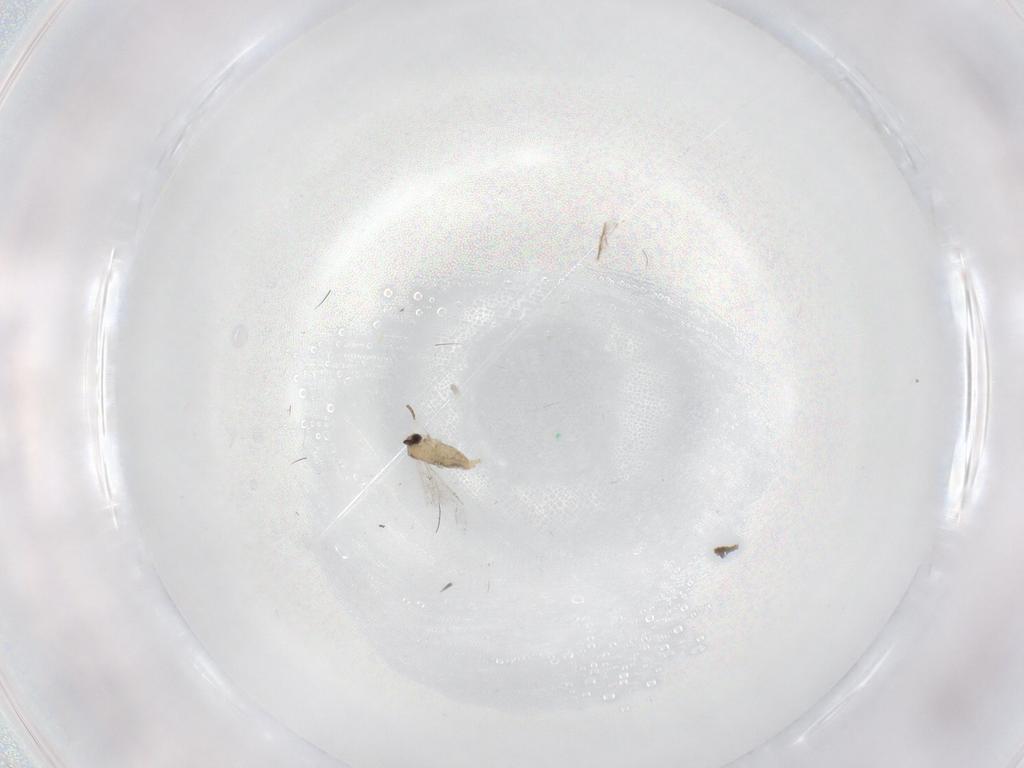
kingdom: Animalia
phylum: Arthropoda
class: Insecta
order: Diptera
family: Cecidomyiidae
